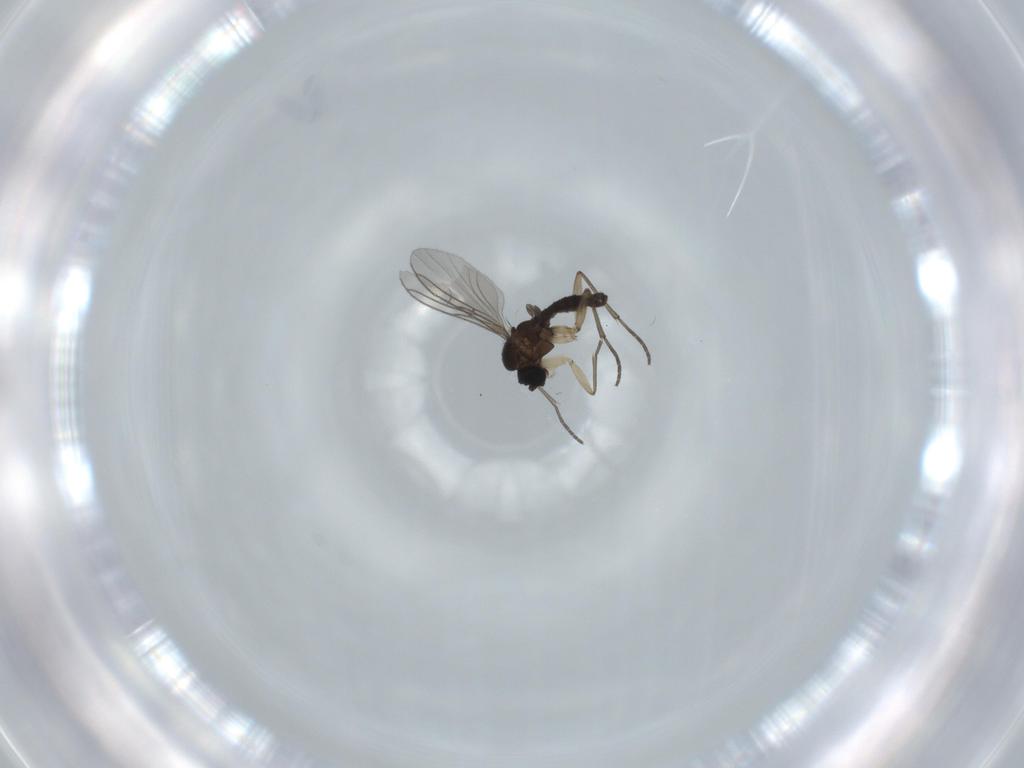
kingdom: Animalia
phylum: Arthropoda
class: Insecta
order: Diptera
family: Sciaridae
